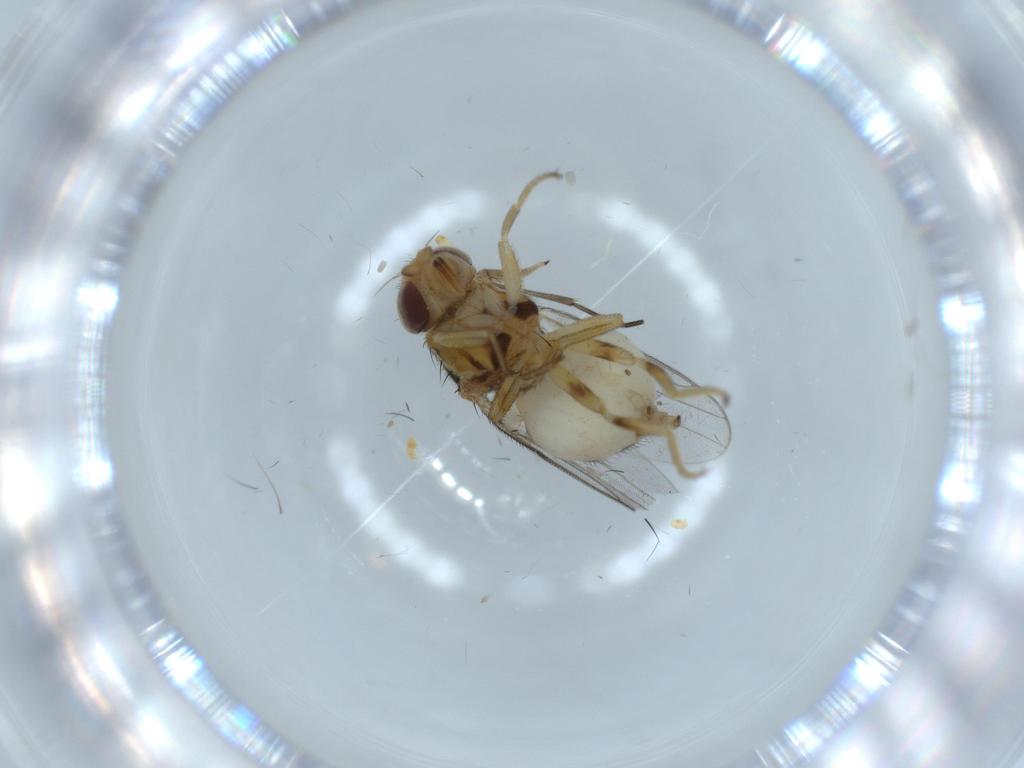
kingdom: Animalia
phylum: Arthropoda
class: Insecta
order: Diptera
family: Chloropidae
